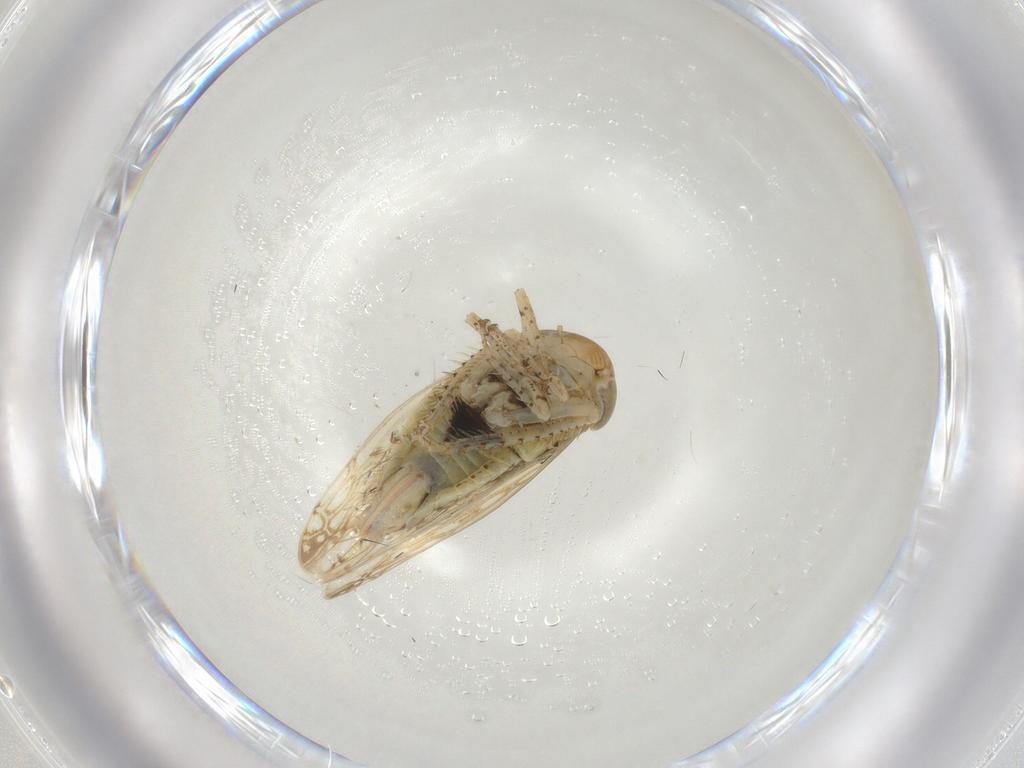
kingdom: Animalia
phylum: Arthropoda
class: Insecta
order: Hemiptera
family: Cicadellidae
